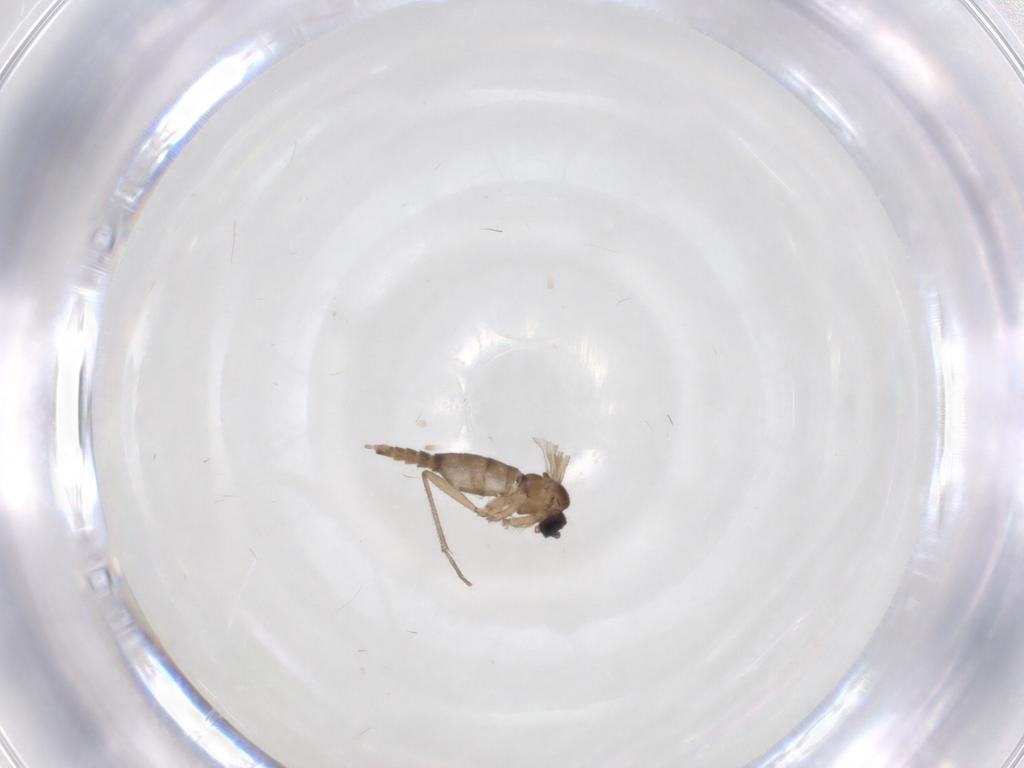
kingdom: Animalia
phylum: Arthropoda
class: Insecta
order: Diptera
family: Sciaridae
